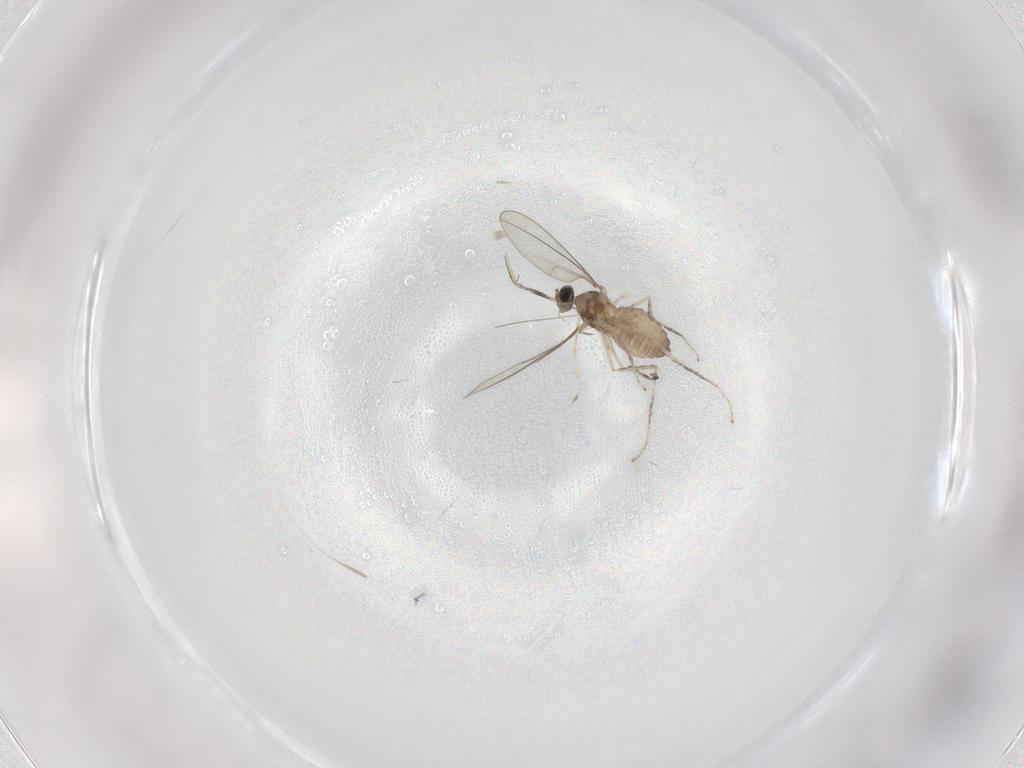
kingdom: Animalia
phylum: Arthropoda
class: Insecta
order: Diptera
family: Cecidomyiidae
